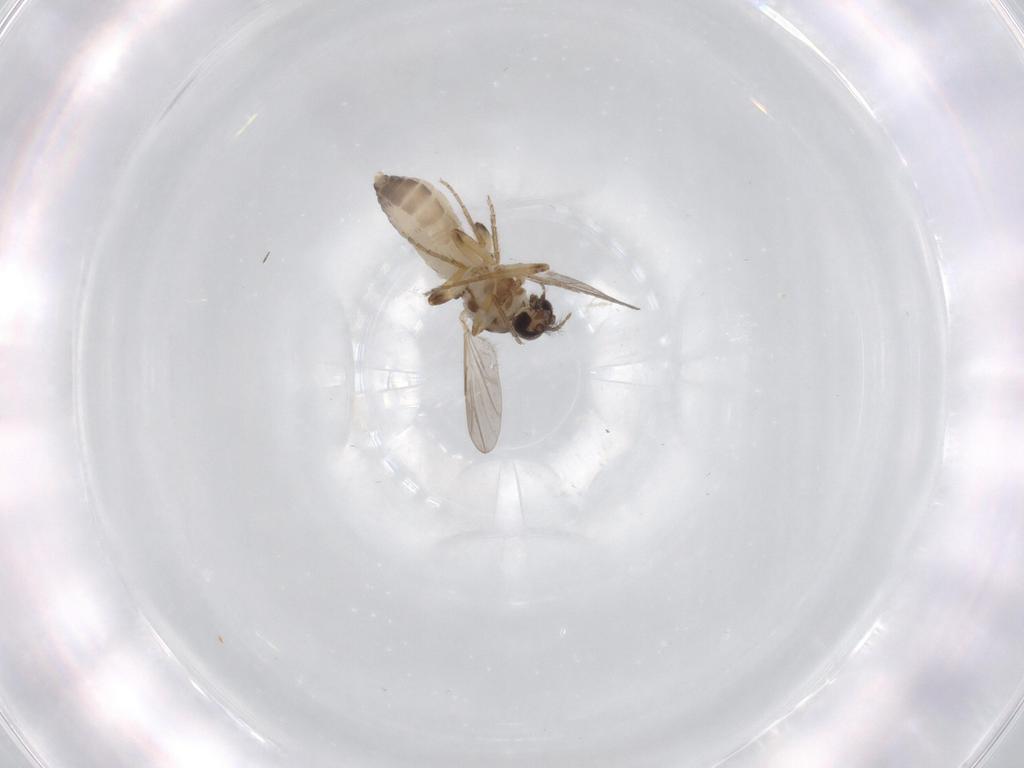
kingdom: Animalia
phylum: Arthropoda
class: Insecta
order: Diptera
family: Ceratopogonidae
